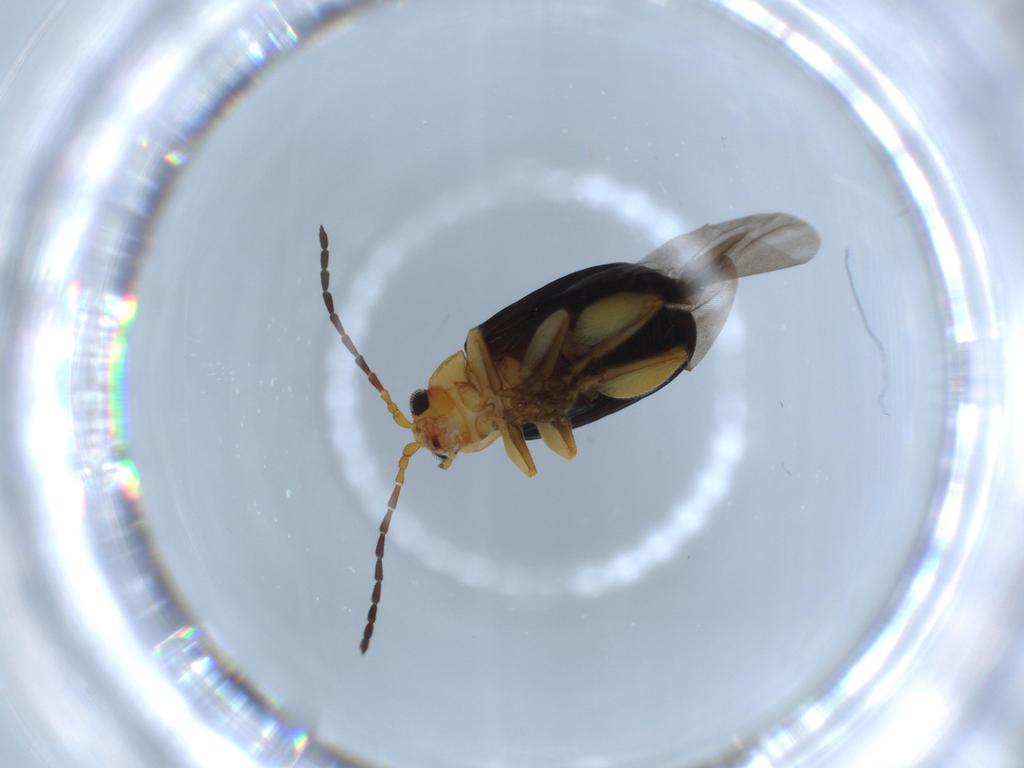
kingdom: Animalia
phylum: Arthropoda
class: Insecta
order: Coleoptera
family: Chrysomelidae
